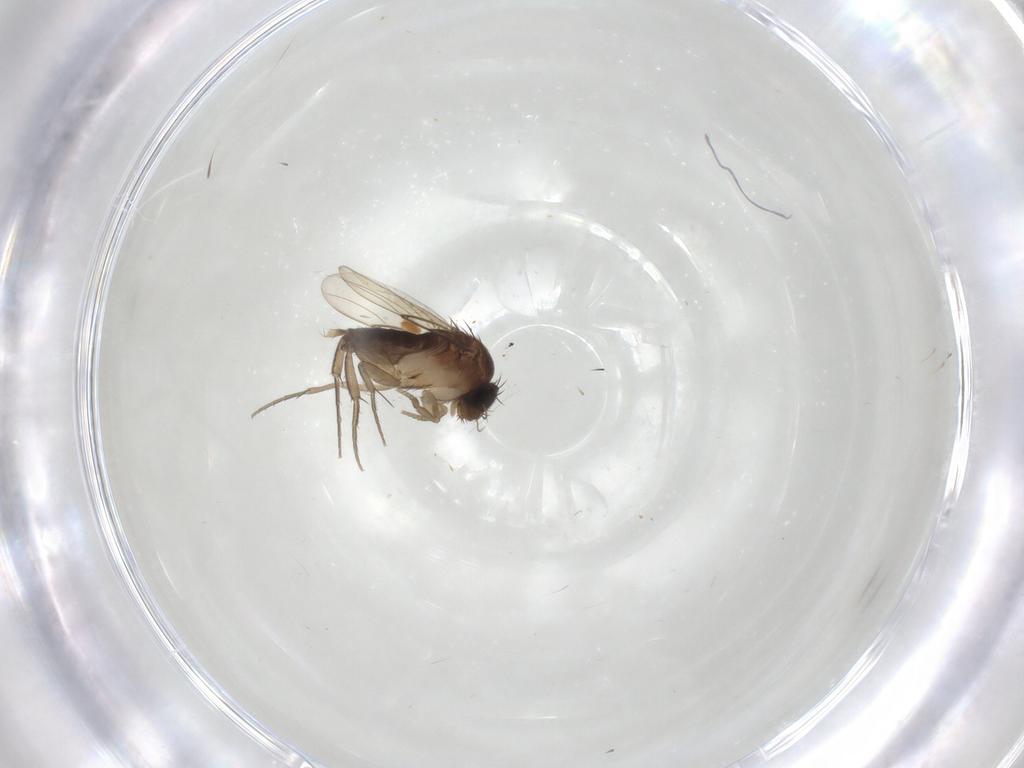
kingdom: Animalia
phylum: Arthropoda
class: Insecta
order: Diptera
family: Phoridae
